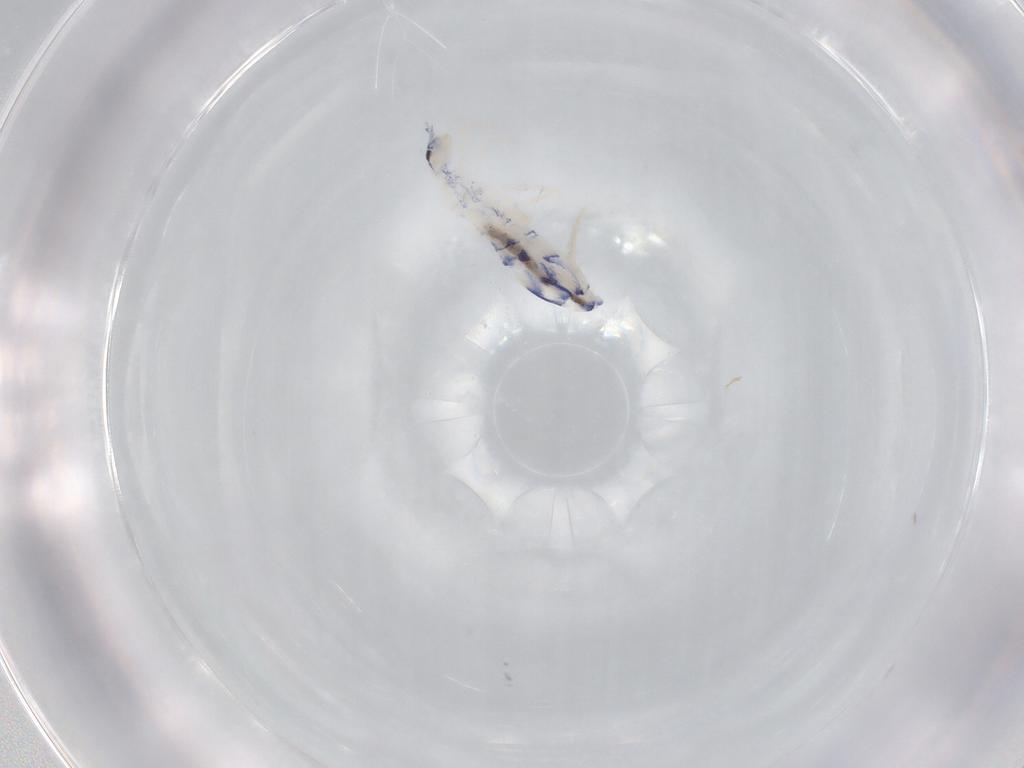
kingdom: Animalia
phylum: Arthropoda
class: Collembola
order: Entomobryomorpha
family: Entomobryidae
